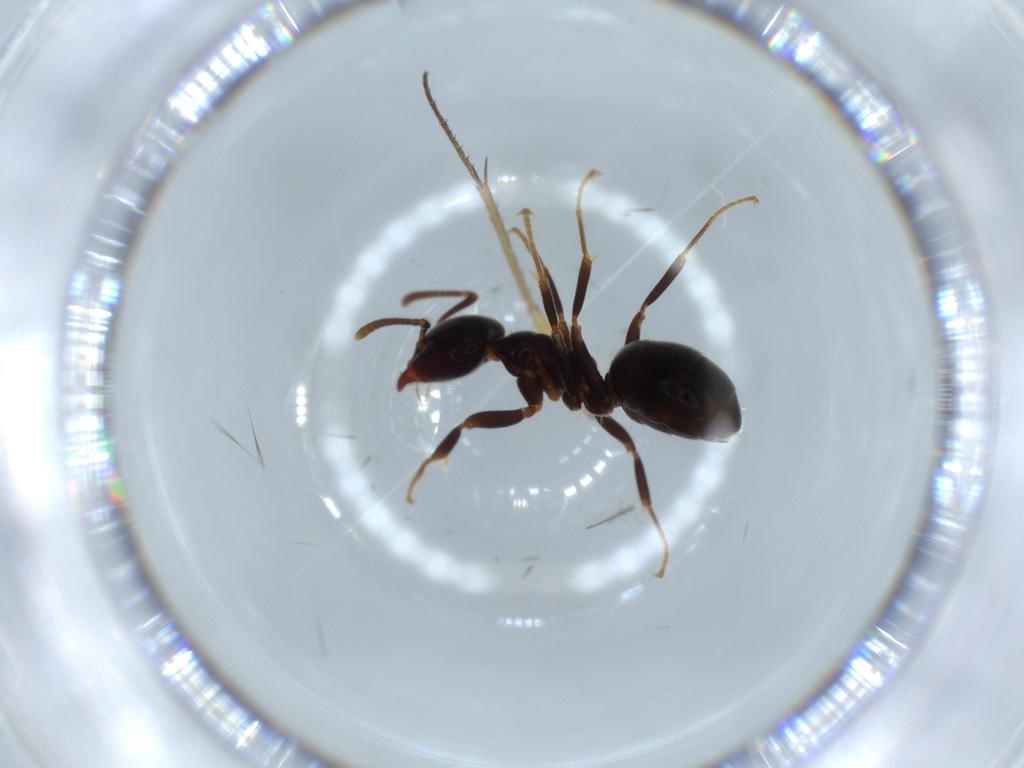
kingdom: Animalia
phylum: Arthropoda
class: Insecta
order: Hymenoptera
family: Formicidae
